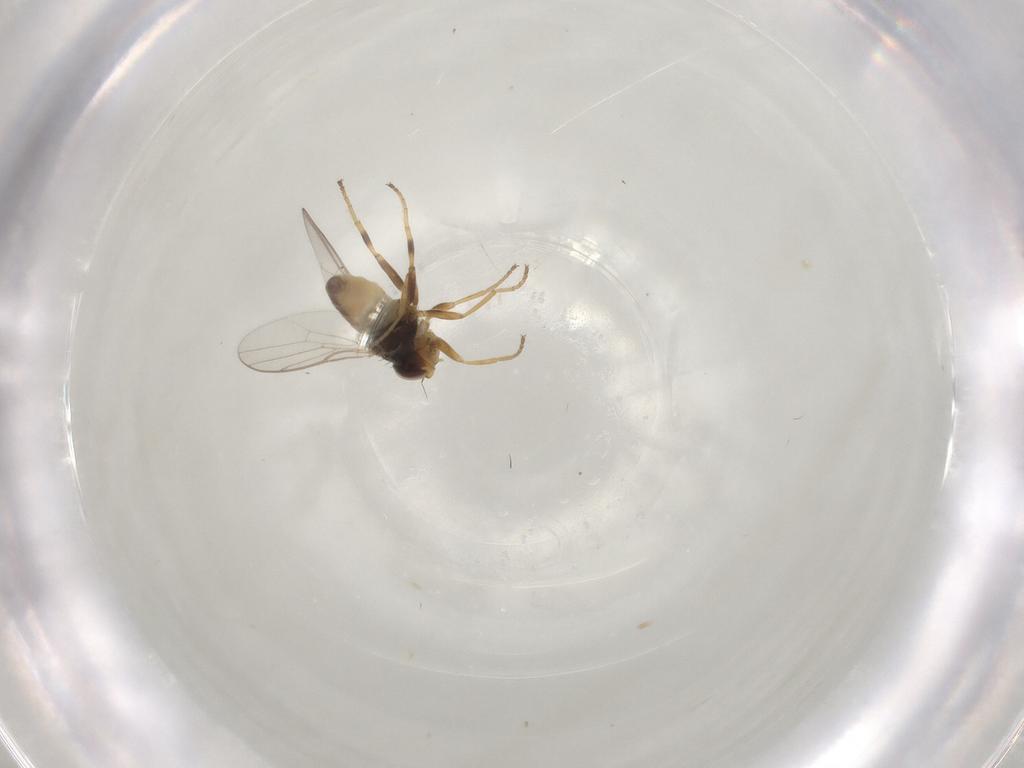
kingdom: Animalia
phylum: Arthropoda
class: Insecta
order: Diptera
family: Chloropidae
